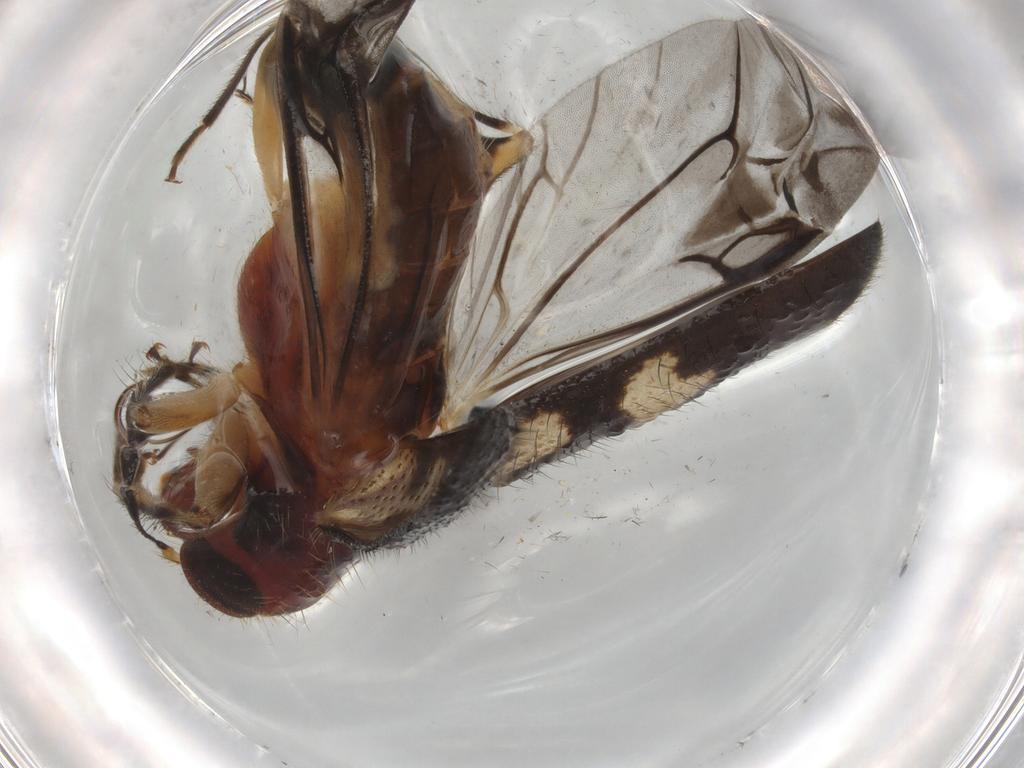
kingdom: Animalia
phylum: Arthropoda
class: Insecta
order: Coleoptera
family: Cleridae
